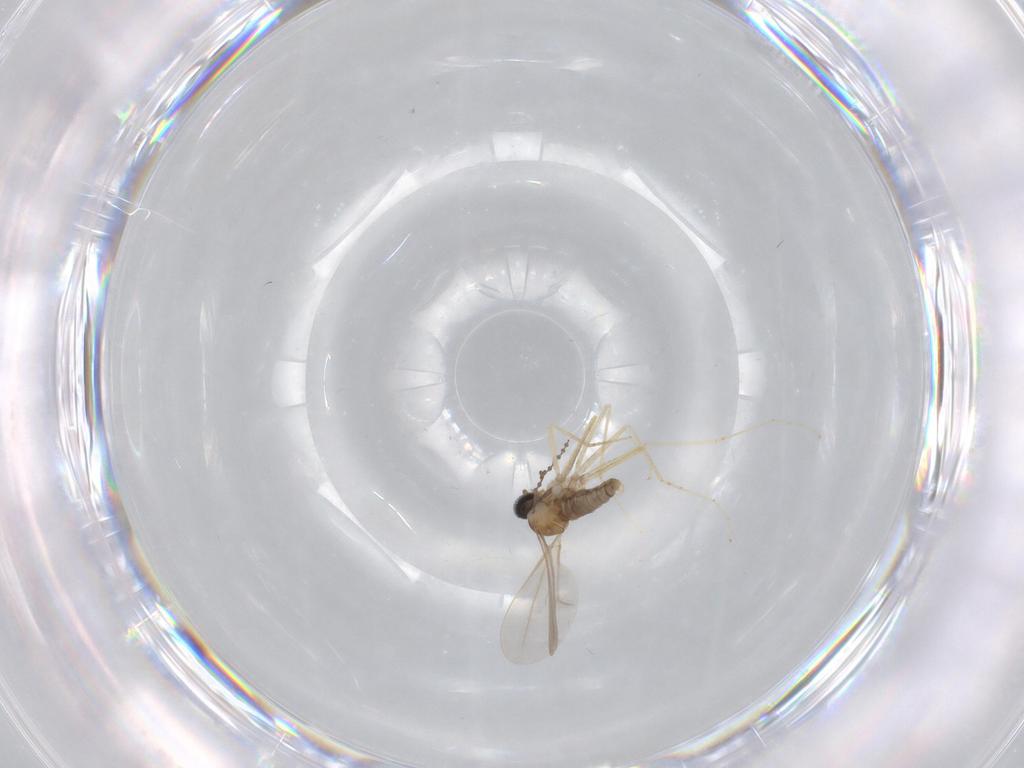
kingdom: Animalia
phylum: Arthropoda
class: Insecta
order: Diptera
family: Cecidomyiidae
